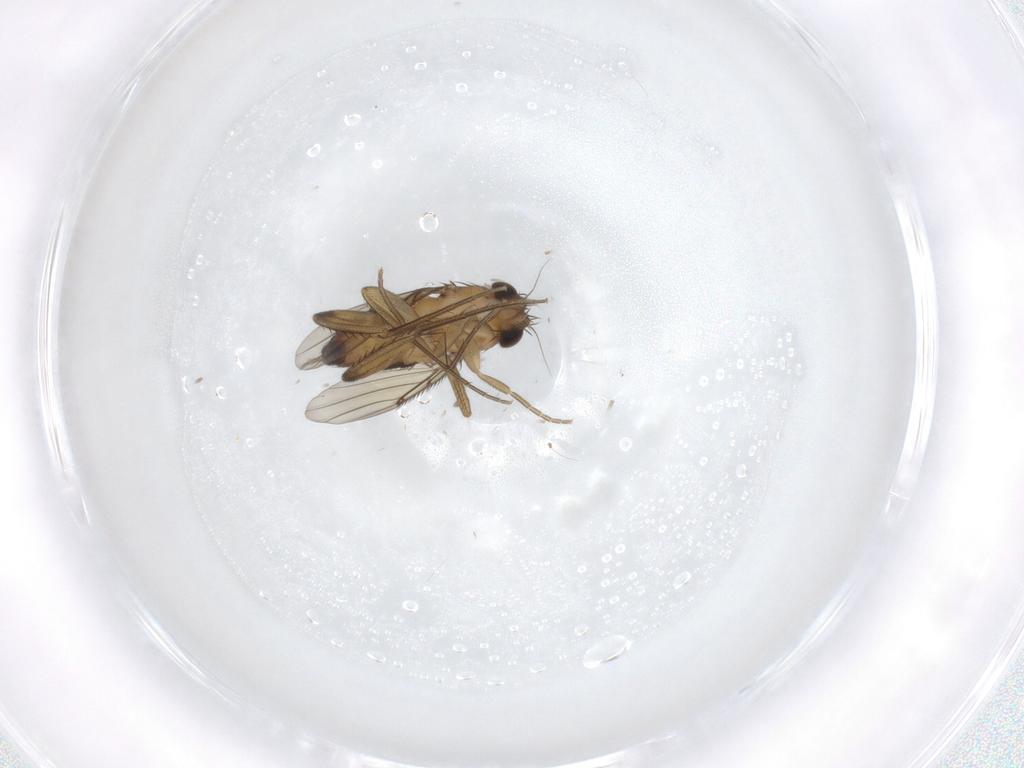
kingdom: Animalia
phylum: Arthropoda
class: Insecta
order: Diptera
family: Phoridae
